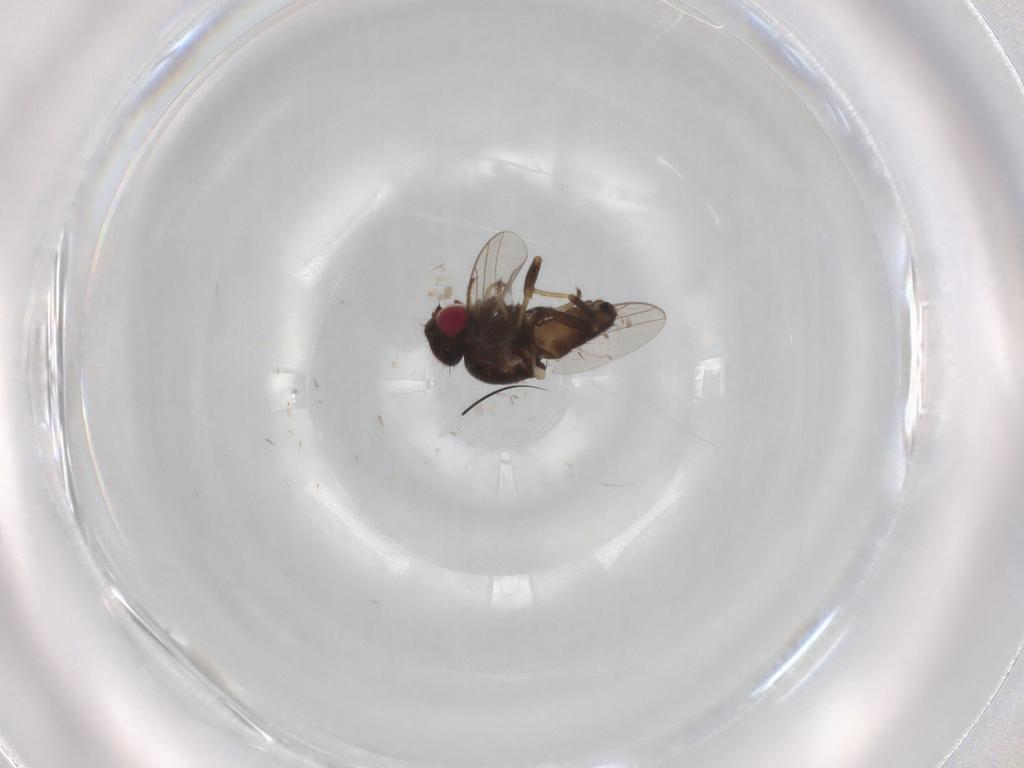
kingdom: Animalia
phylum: Arthropoda
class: Insecta
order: Diptera
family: Chloropidae
